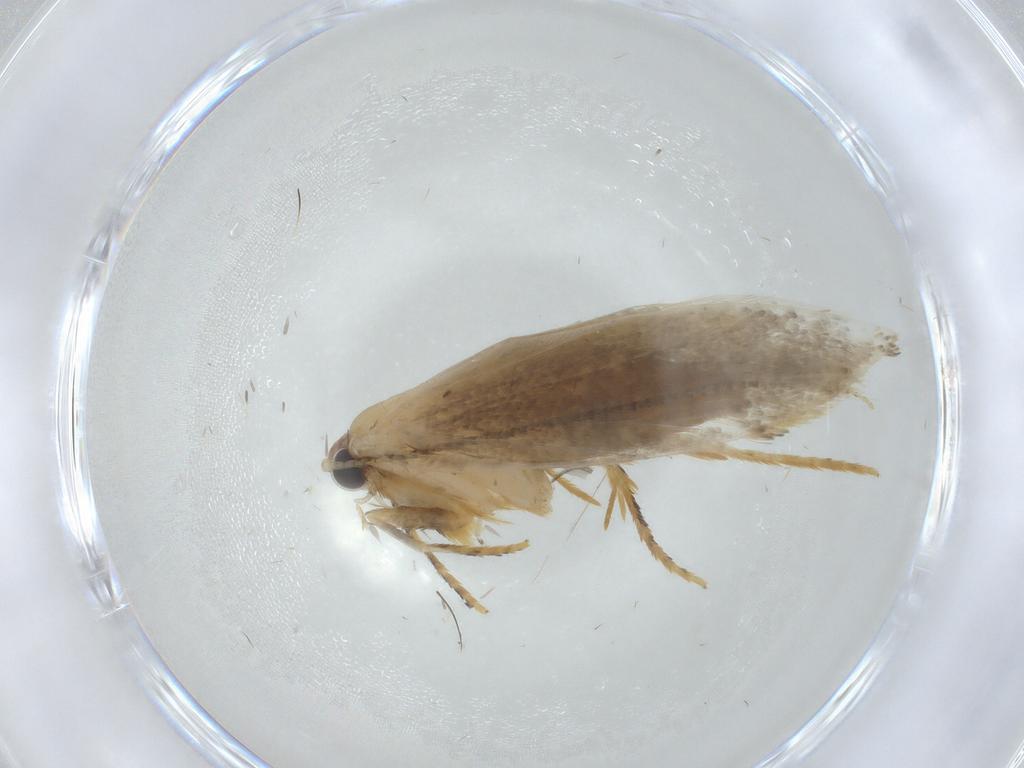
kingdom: Animalia
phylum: Arthropoda
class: Insecta
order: Lepidoptera
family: Tineidae
